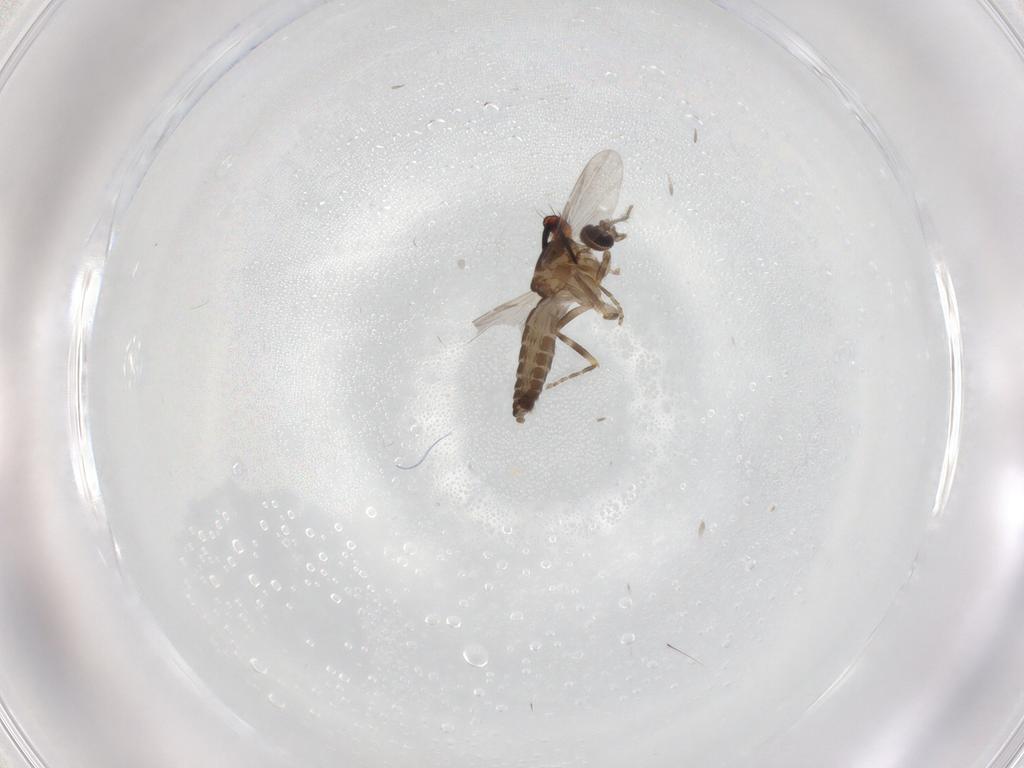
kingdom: Animalia
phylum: Arthropoda
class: Insecta
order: Diptera
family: Ceratopogonidae
